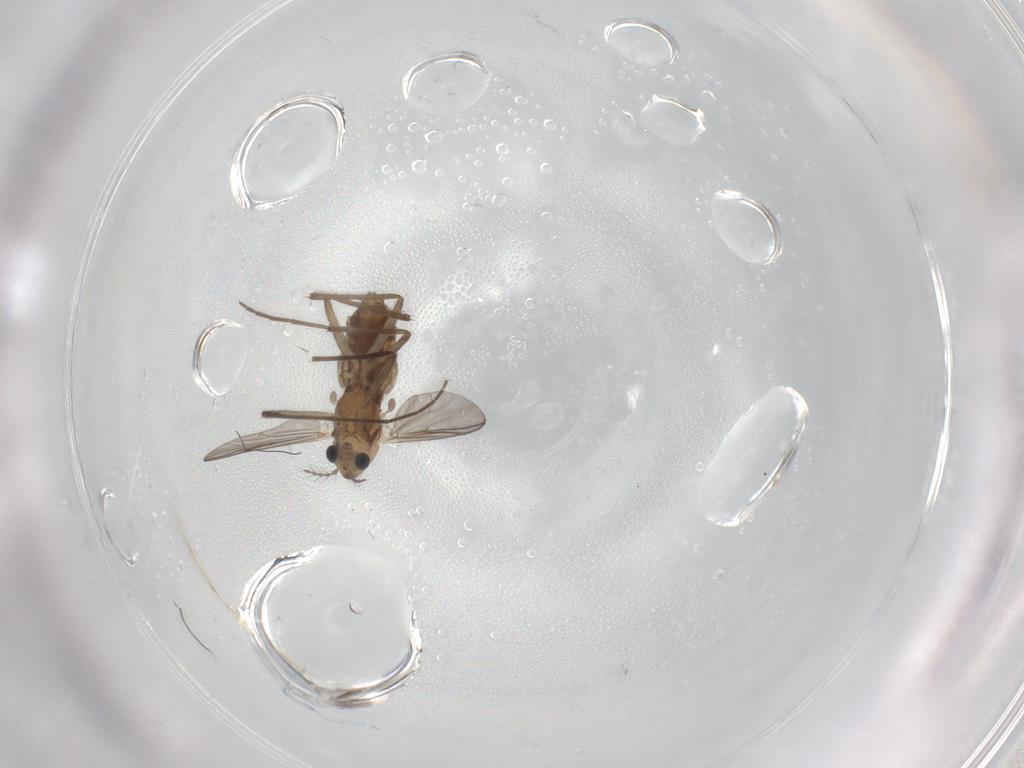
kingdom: Animalia
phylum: Arthropoda
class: Insecta
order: Diptera
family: Chironomidae
